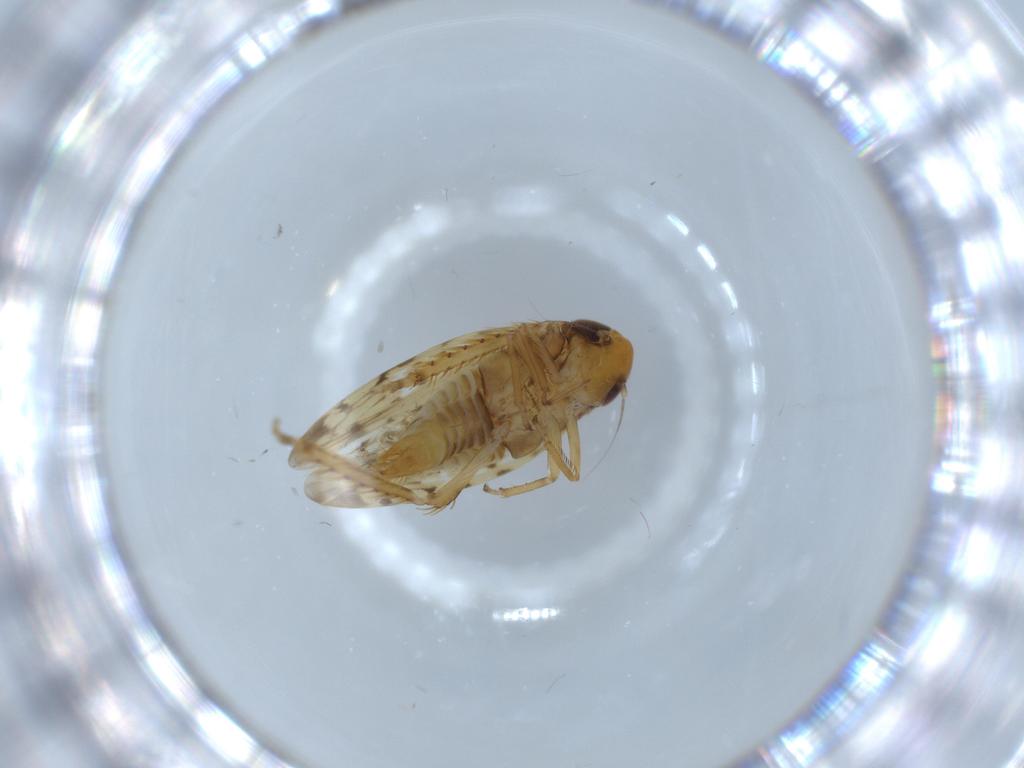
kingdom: Animalia
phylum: Arthropoda
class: Insecta
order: Hemiptera
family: Cicadellidae
